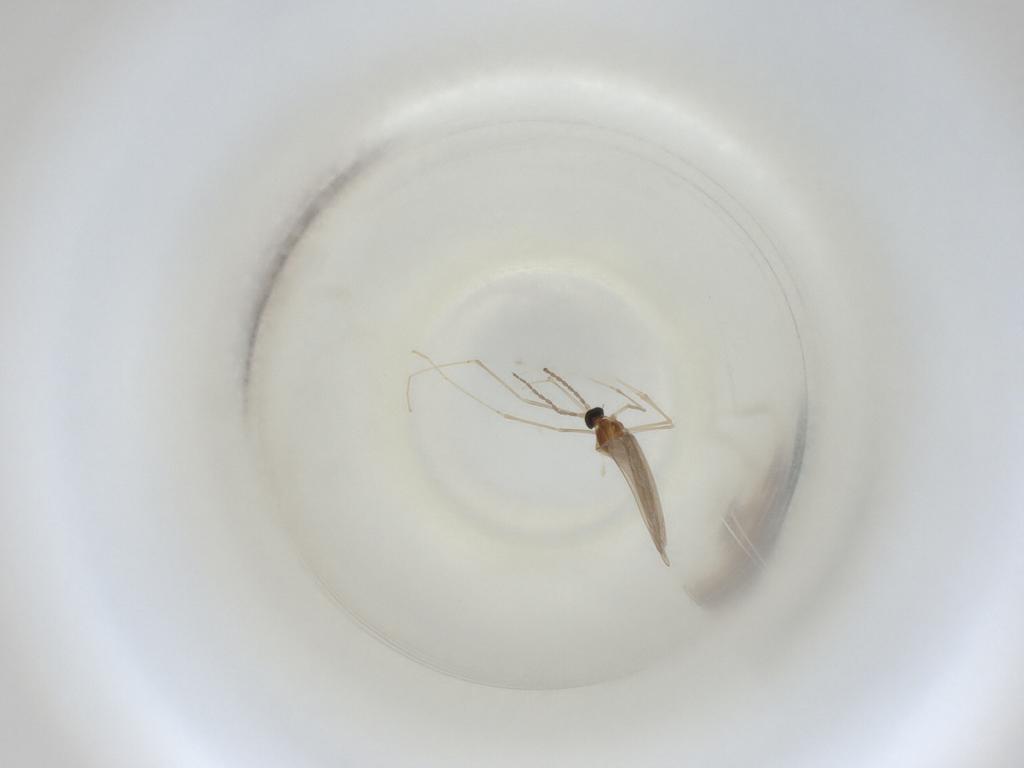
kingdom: Animalia
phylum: Arthropoda
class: Insecta
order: Diptera
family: Cecidomyiidae
